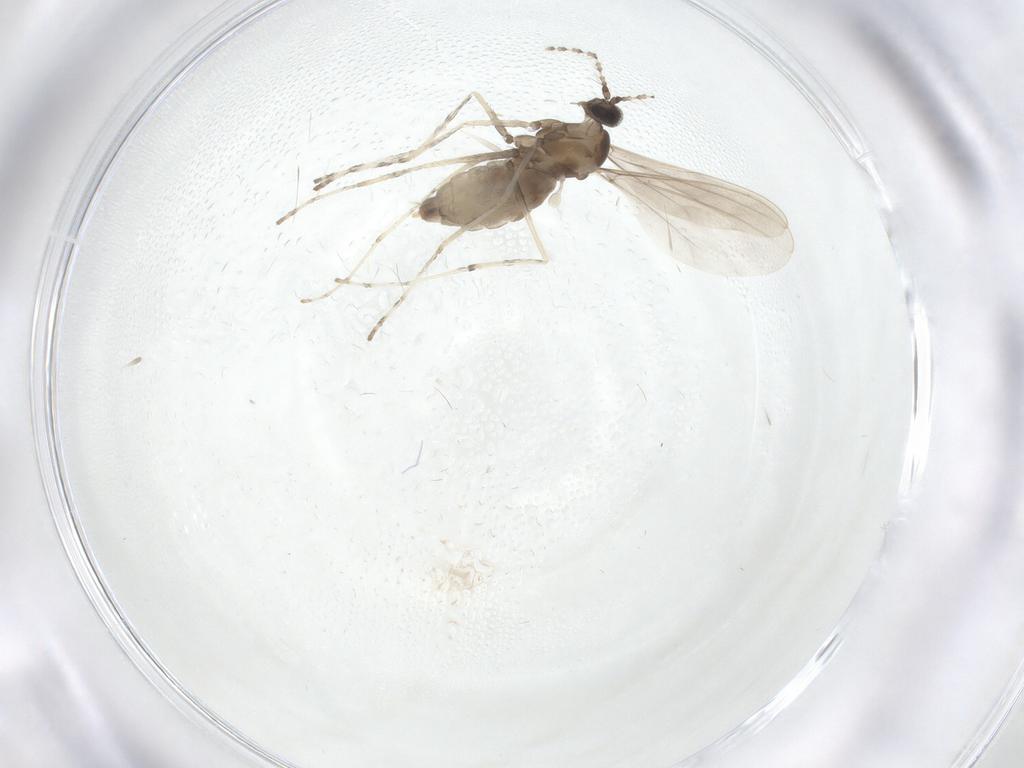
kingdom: Animalia
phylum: Arthropoda
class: Insecta
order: Diptera
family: Cecidomyiidae
